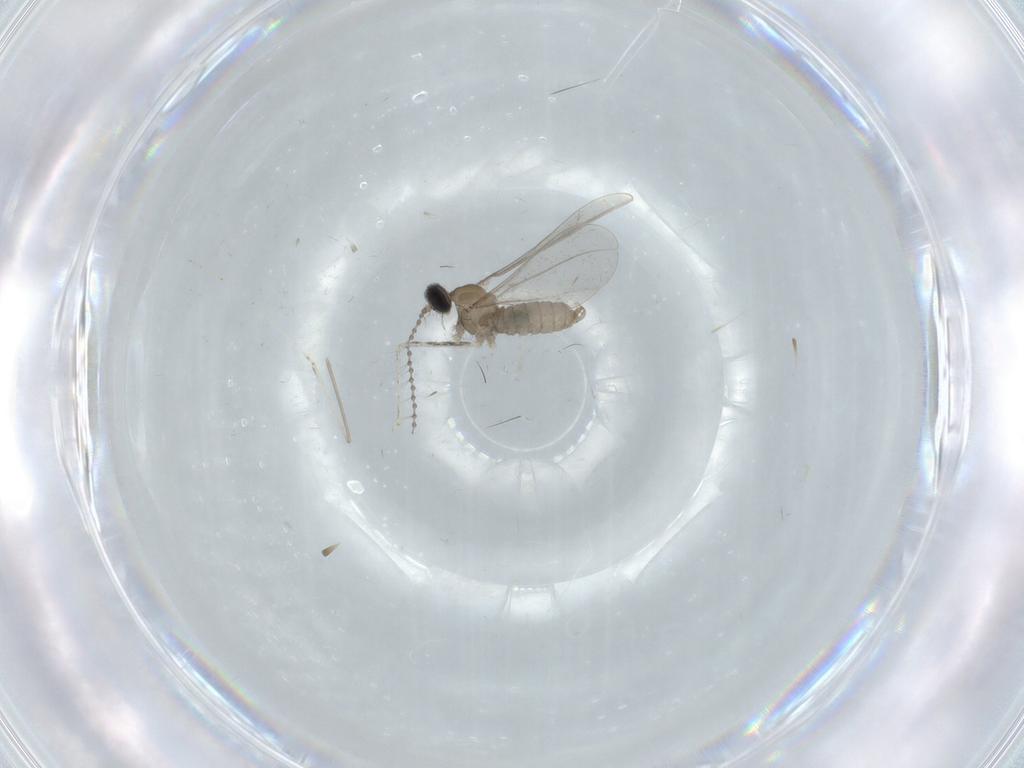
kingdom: Animalia
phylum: Arthropoda
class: Insecta
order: Diptera
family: Cecidomyiidae
